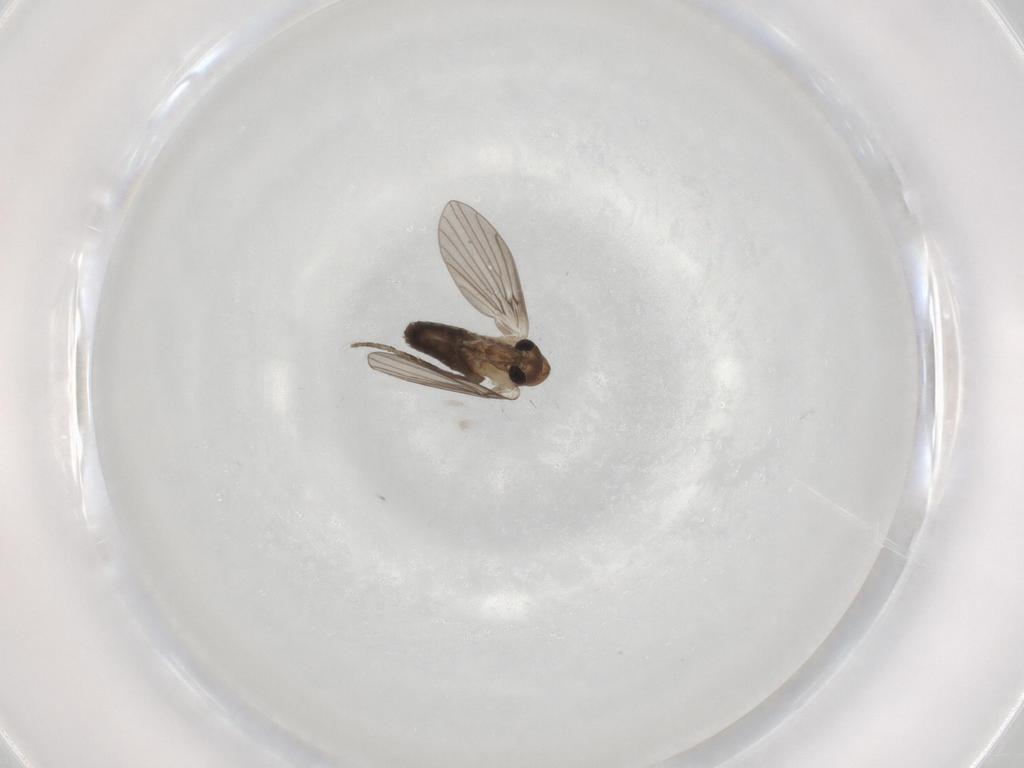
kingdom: Animalia
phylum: Arthropoda
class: Insecta
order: Diptera
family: Psychodidae
